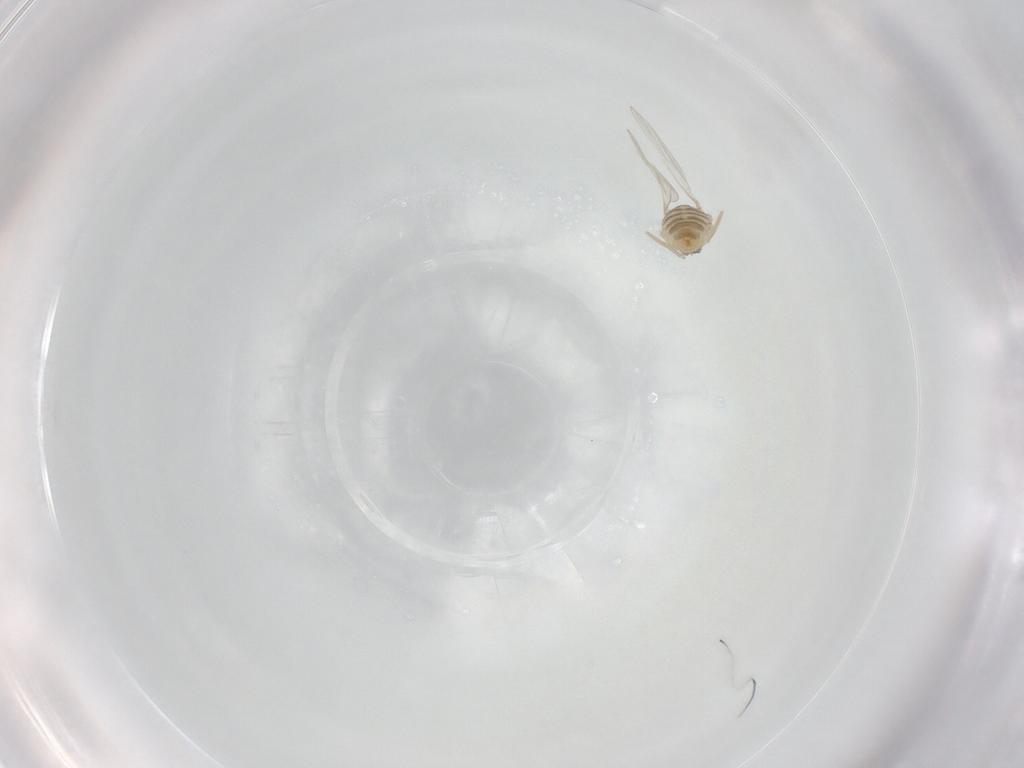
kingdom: Animalia
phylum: Arthropoda
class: Insecta
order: Diptera
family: Cecidomyiidae
